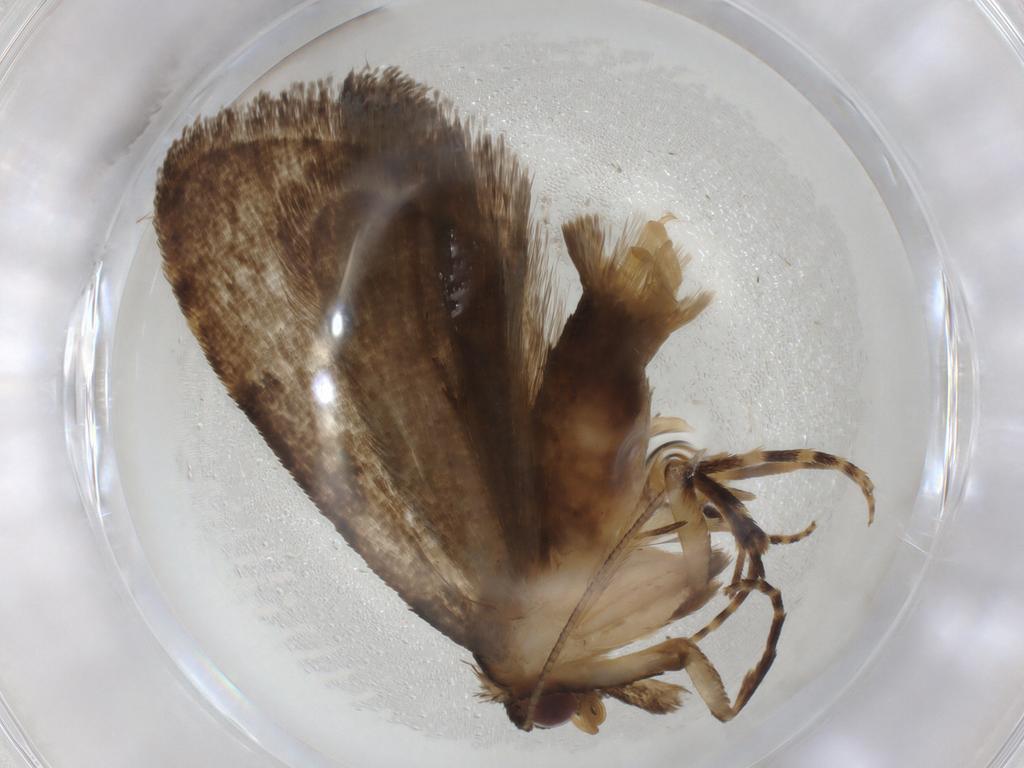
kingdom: Animalia
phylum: Arthropoda
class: Insecta
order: Lepidoptera
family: Erebidae
